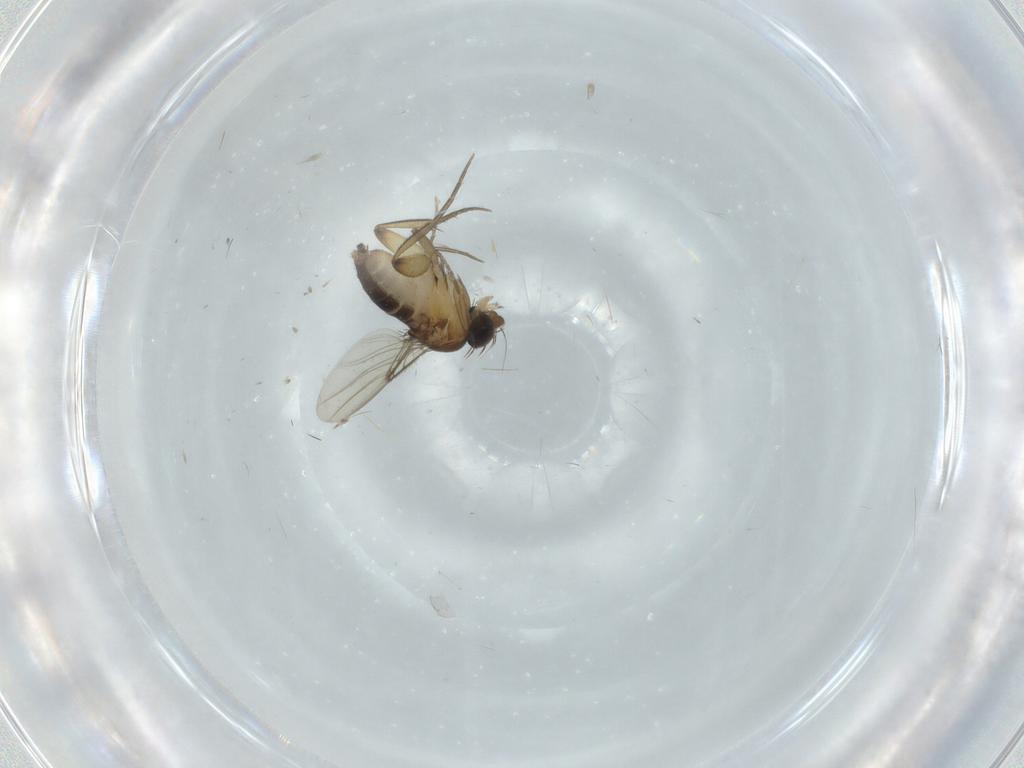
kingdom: Animalia
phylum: Arthropoda
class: Insecta
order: Diptera
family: Phoridae
